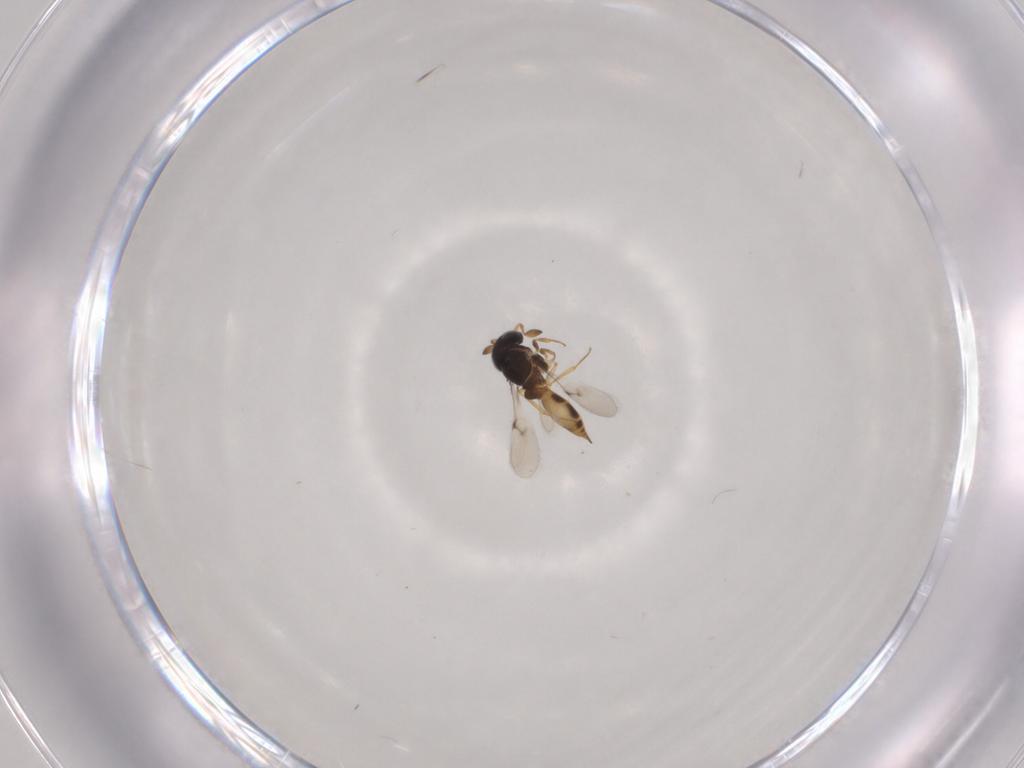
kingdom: Animalia
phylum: Arthropoda
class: Insecta
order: Hymenoptera
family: Scelionidae
